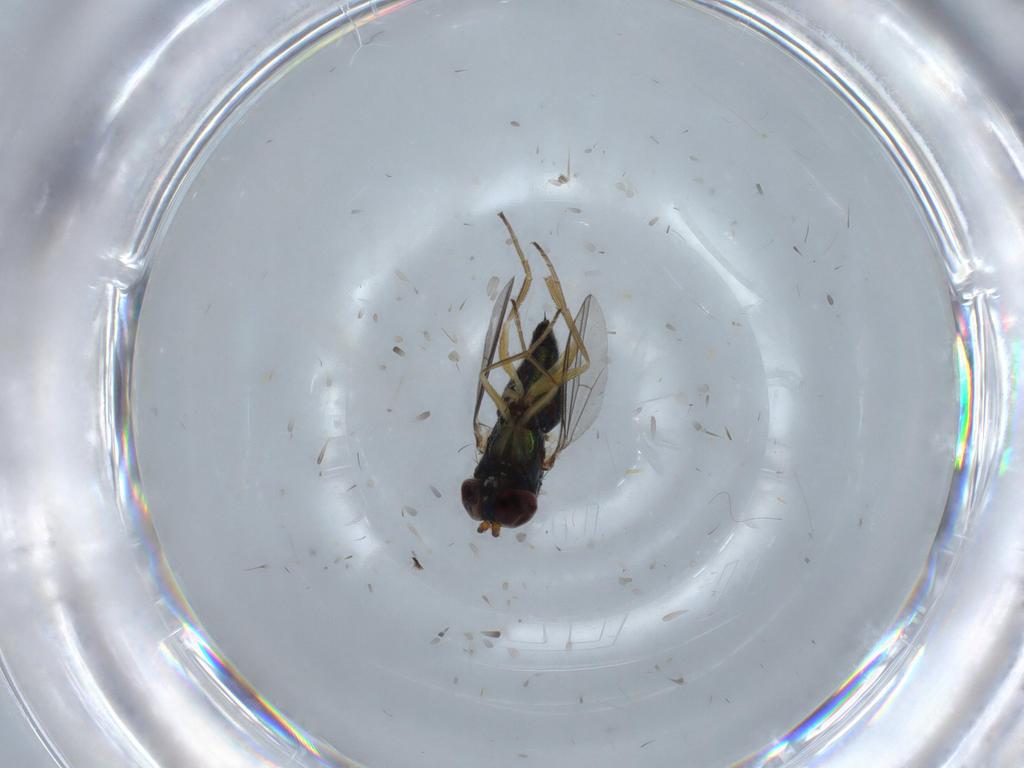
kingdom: Animalia
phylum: Arthropoda
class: Insecta
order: Diptera
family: Dolichopodidae
